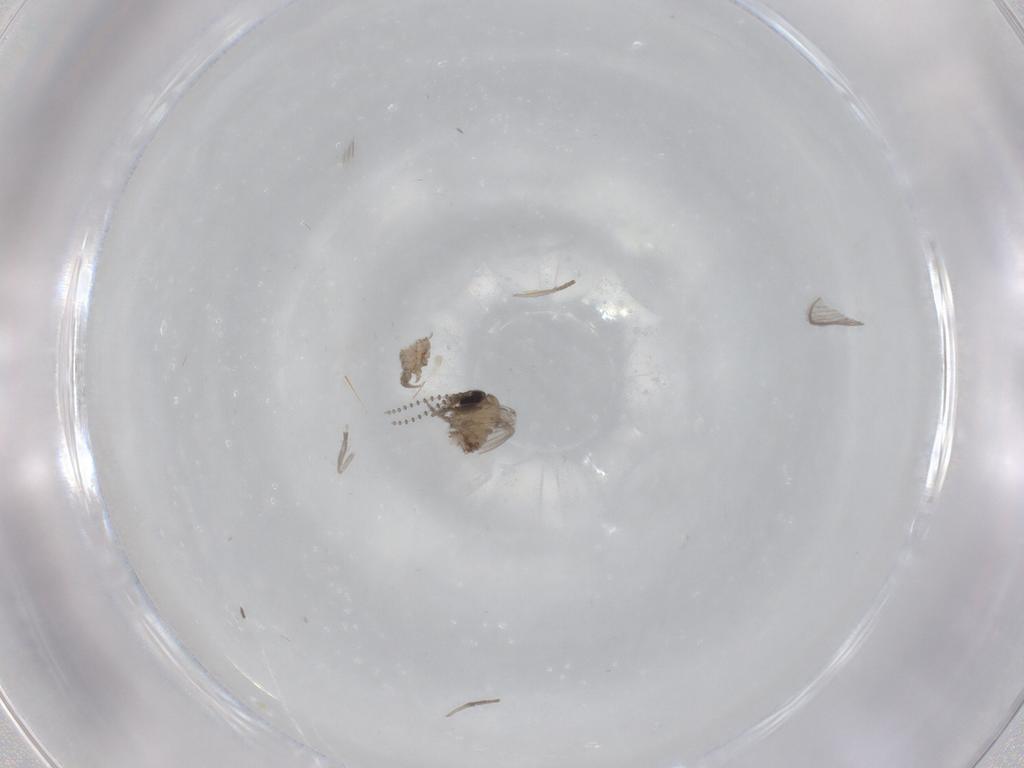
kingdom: Animalia
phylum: Arthropoda
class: Insecta
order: Diptera
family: Psychodidae
